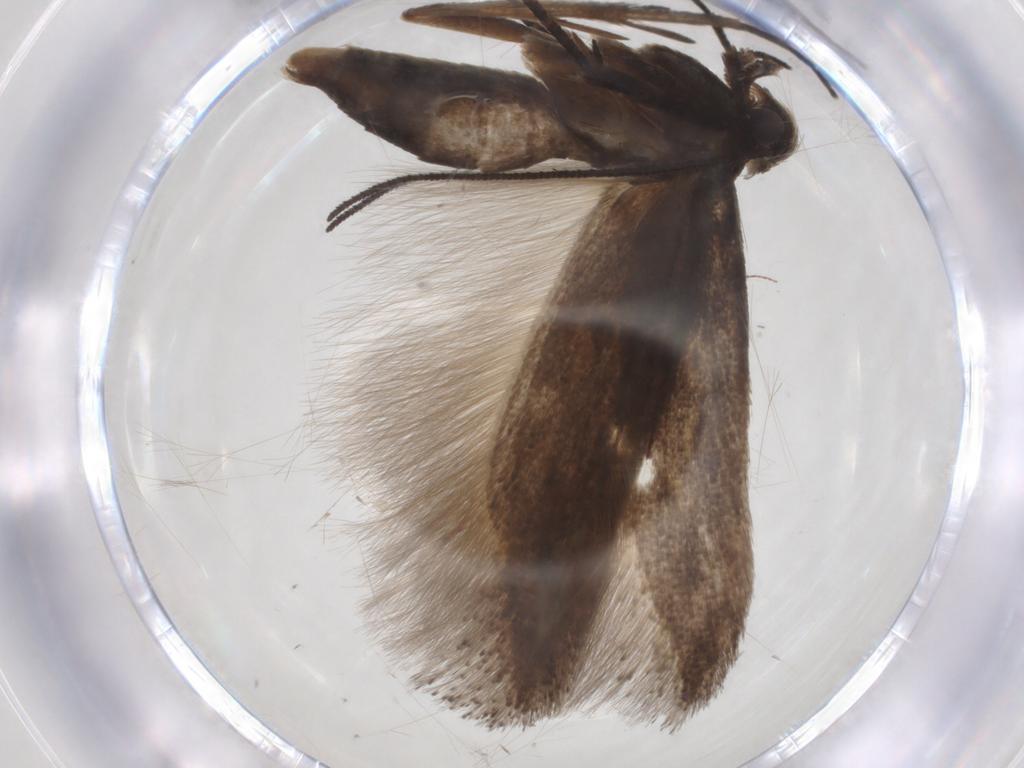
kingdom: Animalia
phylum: Arthropoda
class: Insecta
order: Lepidoptera
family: Gelechiidae
